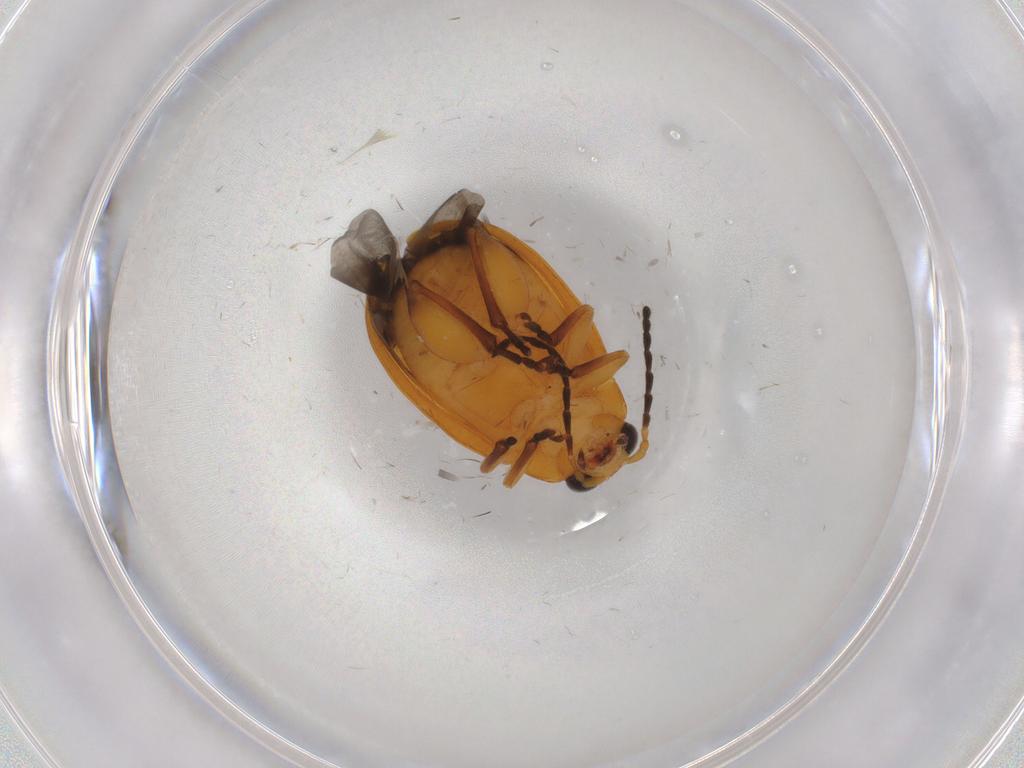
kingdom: Animalia
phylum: Arthropoda
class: Insecta
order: Coleoptera
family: Chrysomelidae
